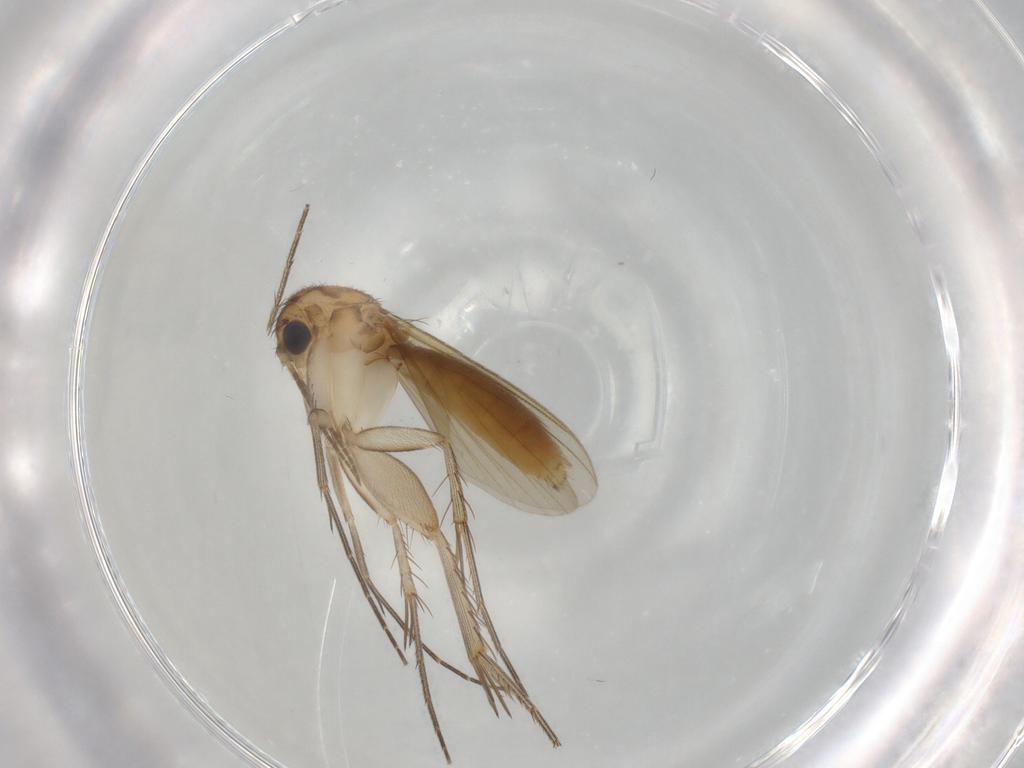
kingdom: Animalia
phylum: Arthropoda
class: Insecta
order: Diptera
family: Mycetophilidae
